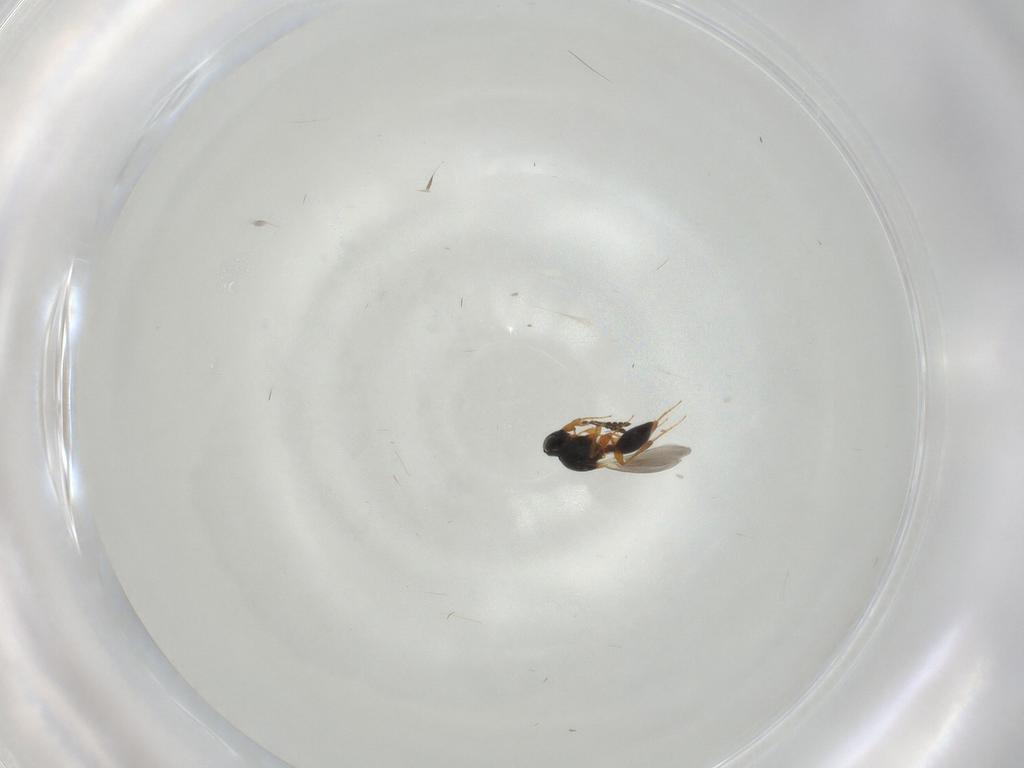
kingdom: Animalia
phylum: Arthropoda
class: Insecta
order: Hymenoptera
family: Platygastridae
